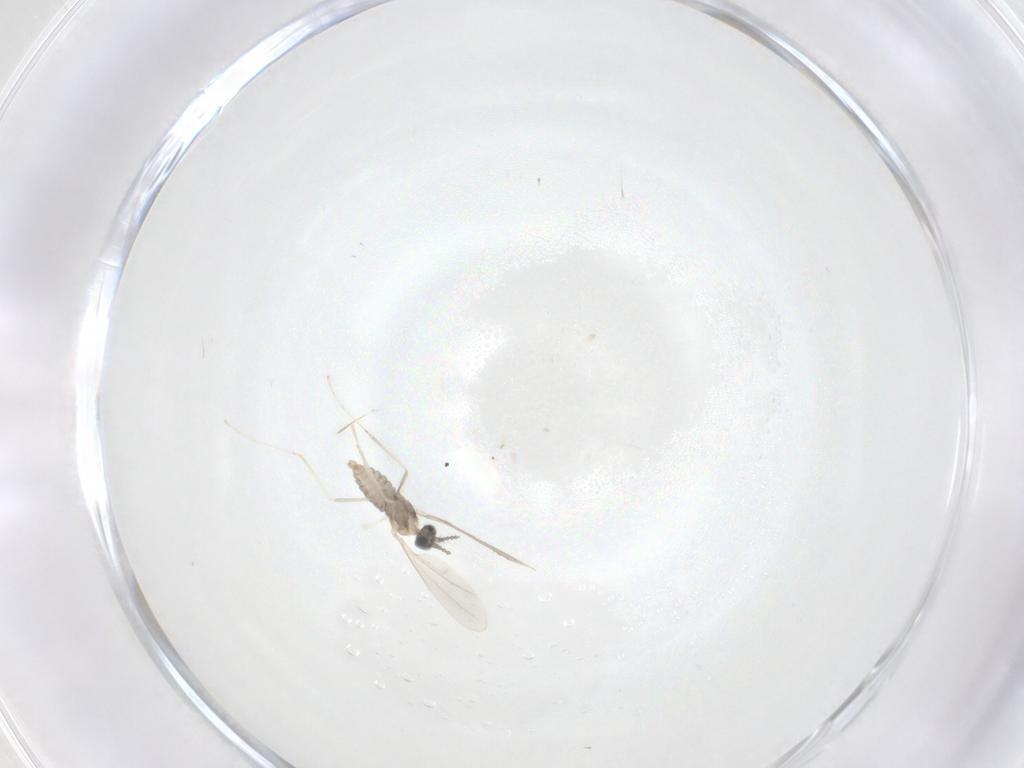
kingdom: Animalia
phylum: Arthropoda
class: Insecta
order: Diptera
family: Cecidomyiidae
